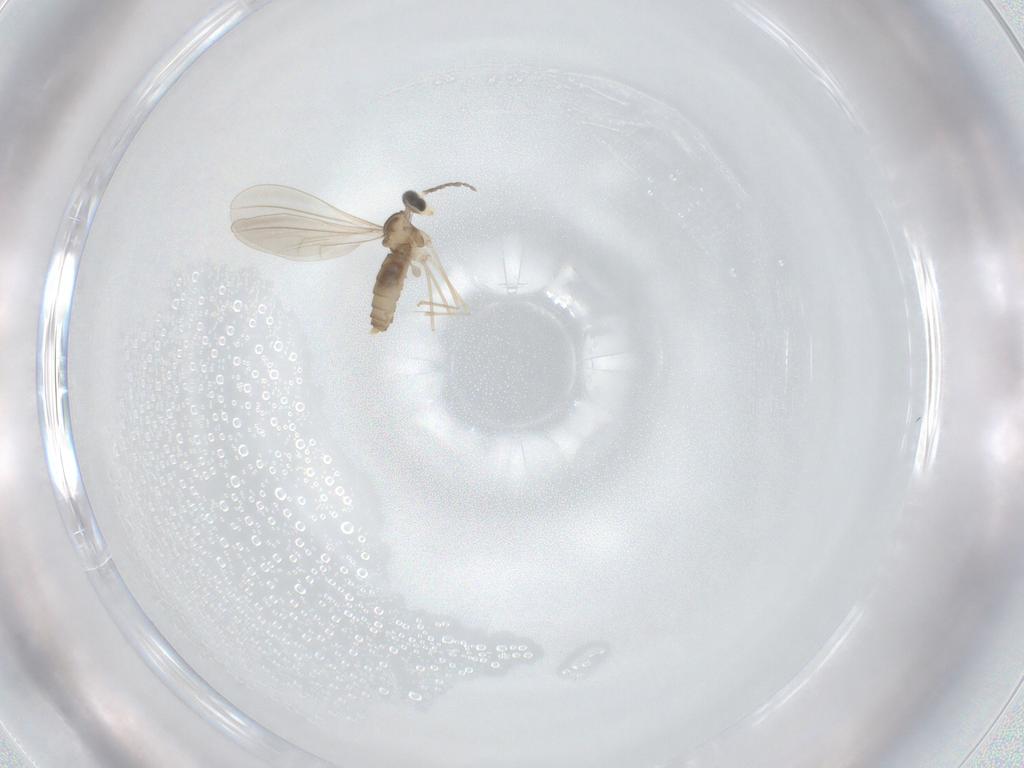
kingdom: Animalia
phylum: Arthropoda
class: Insecta
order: Diptera
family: Cecidomyiidae
